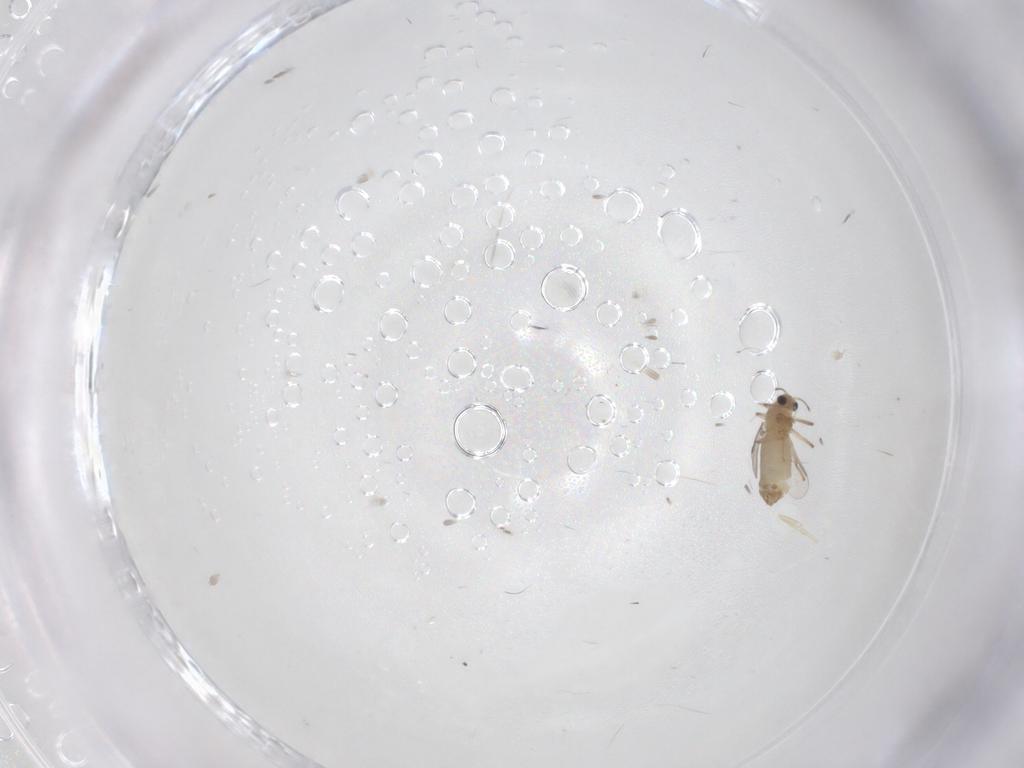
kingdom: Animalia
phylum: Arthropoda
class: Insecta
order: Diptera
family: Chironomidae
